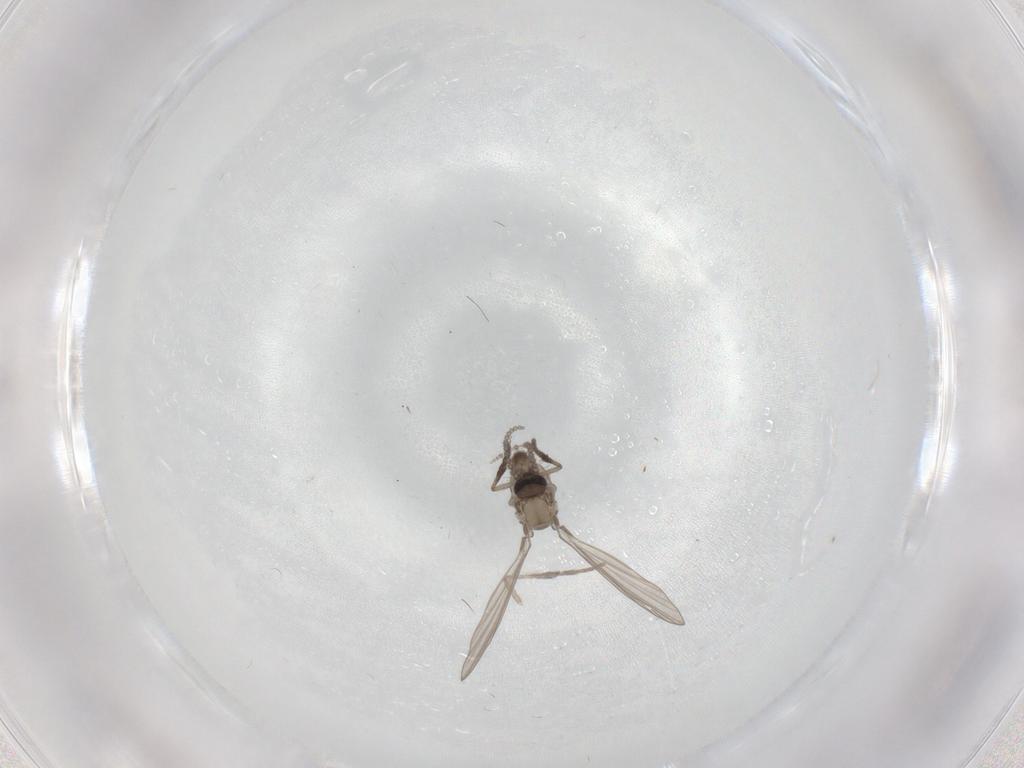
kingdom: Animalia
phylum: Arthropoda
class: Insecta
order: Diptera
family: Psychodidae
